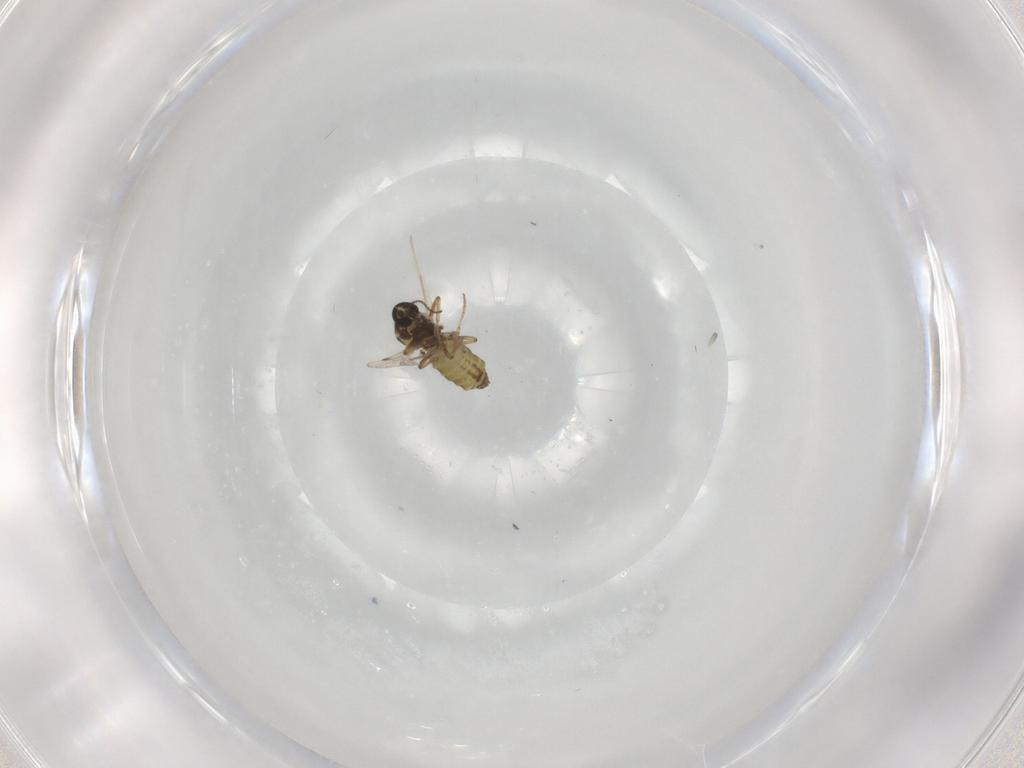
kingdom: Animalia
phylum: Arthropoda
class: Insecta
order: Diptera
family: Ceratopogonidae
